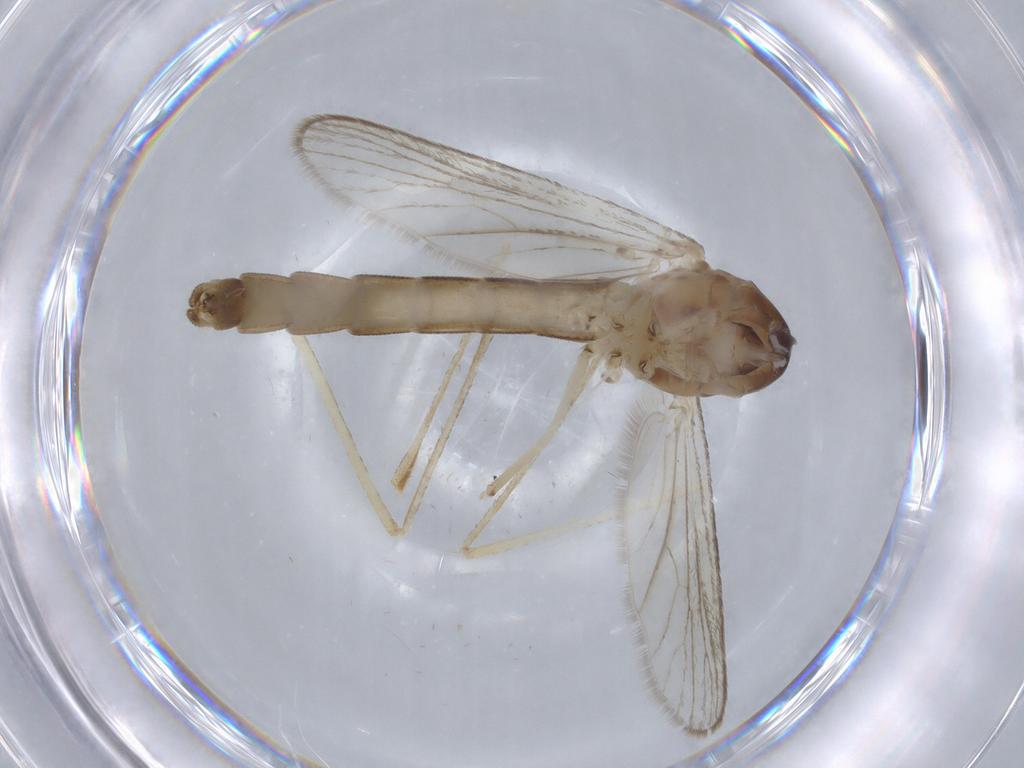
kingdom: Animalia
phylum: Arthropoda
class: Insecta
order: Diptera
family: Culicidae
